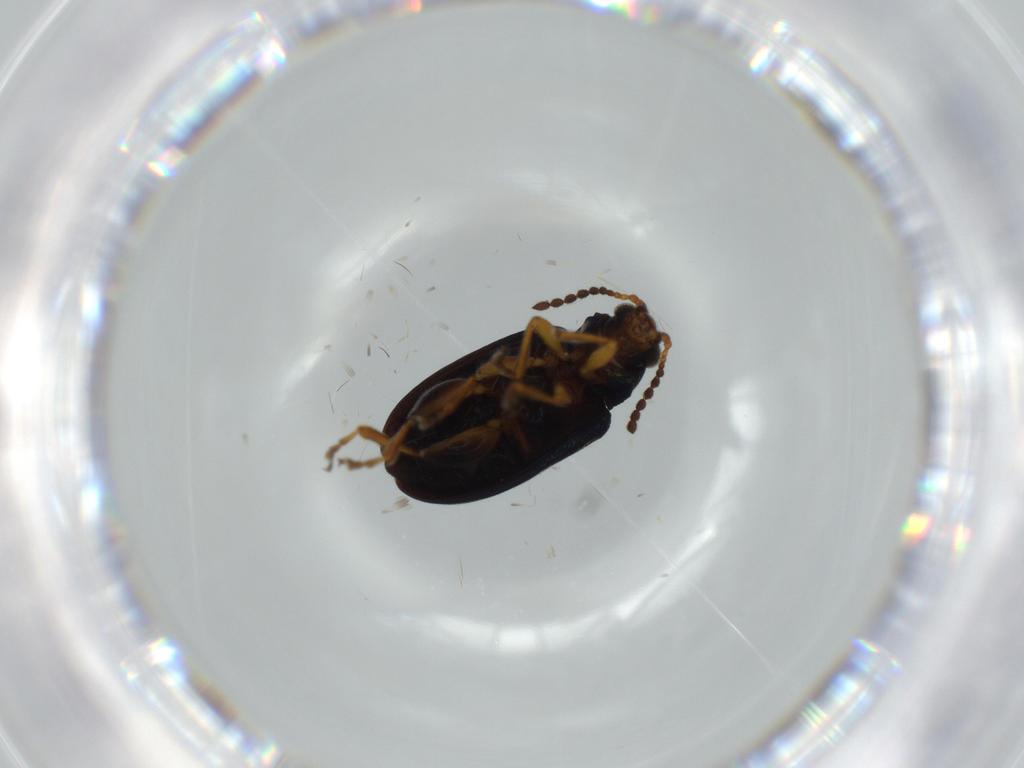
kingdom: Animalia
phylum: Arthropoda
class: Insecta
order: Coleoptera
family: Chrysomelidae
